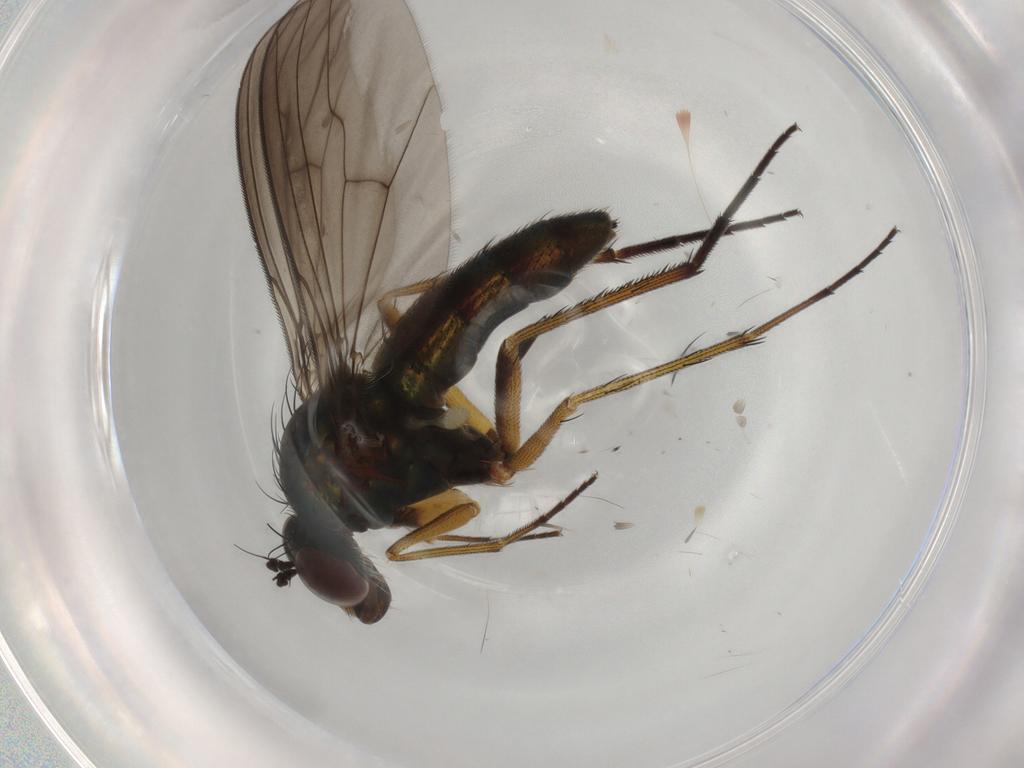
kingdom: Animalia
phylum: Arthropoda
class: Insecta
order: Diptera
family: Dolichopodidae
